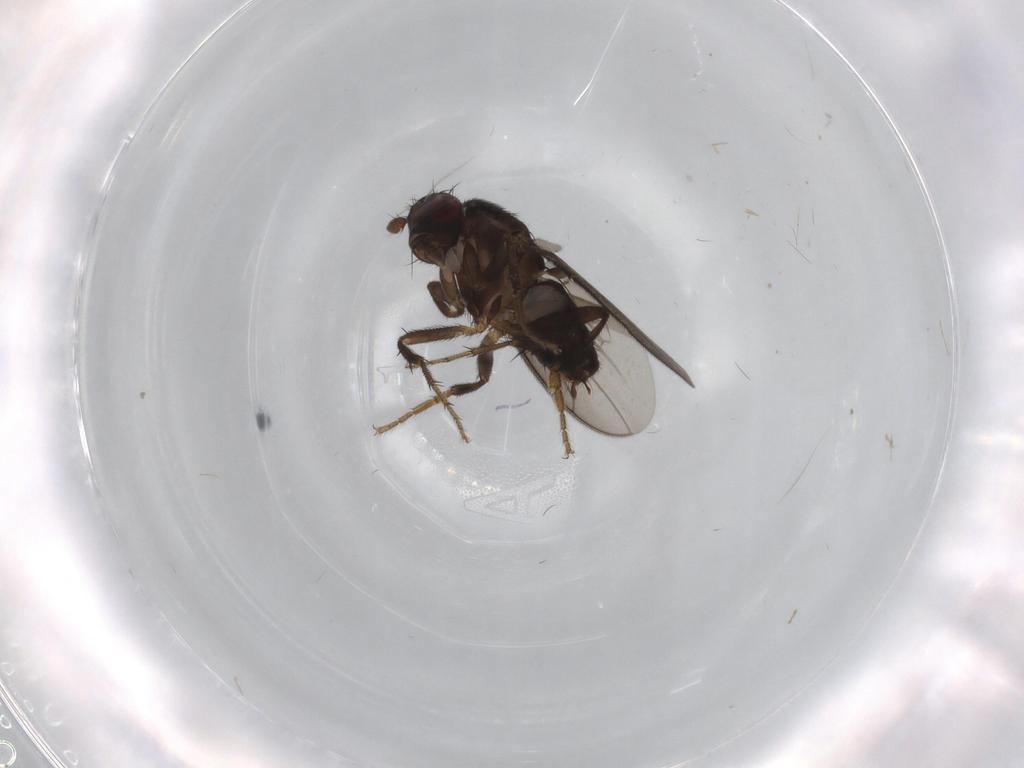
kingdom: Animalia
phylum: Arthropoda
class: Insecta
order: Diptera
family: Sphaeroceridae
